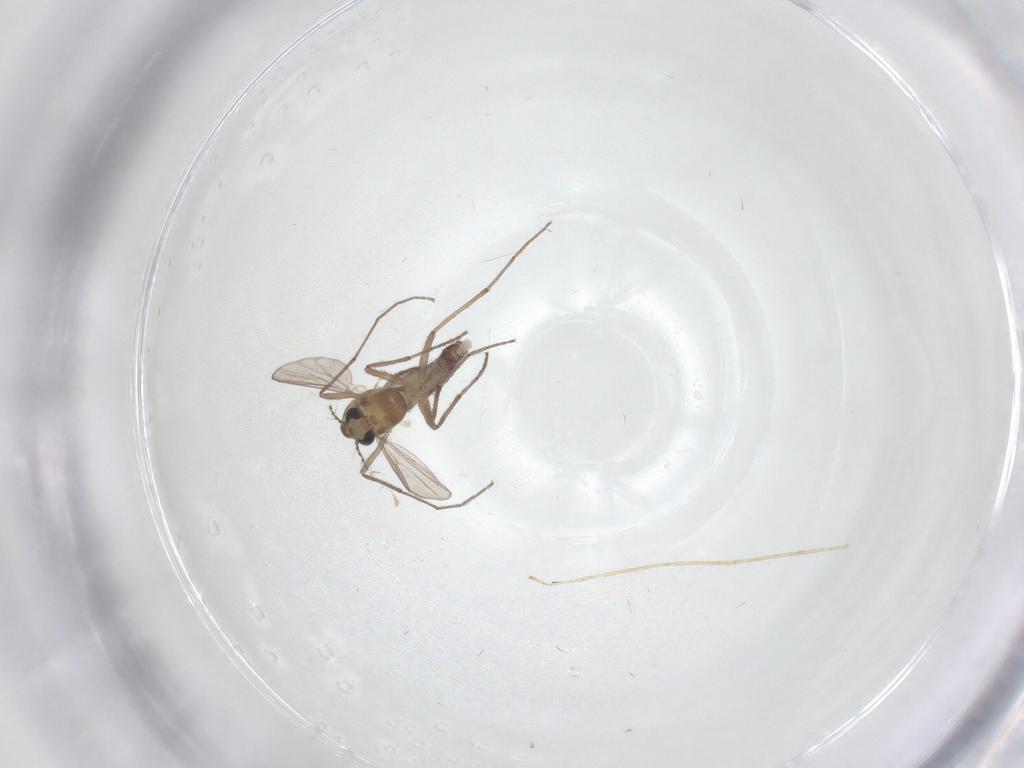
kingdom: Animalia
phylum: Arthropoda
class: Insecta
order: Diptera
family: Chironomidae
